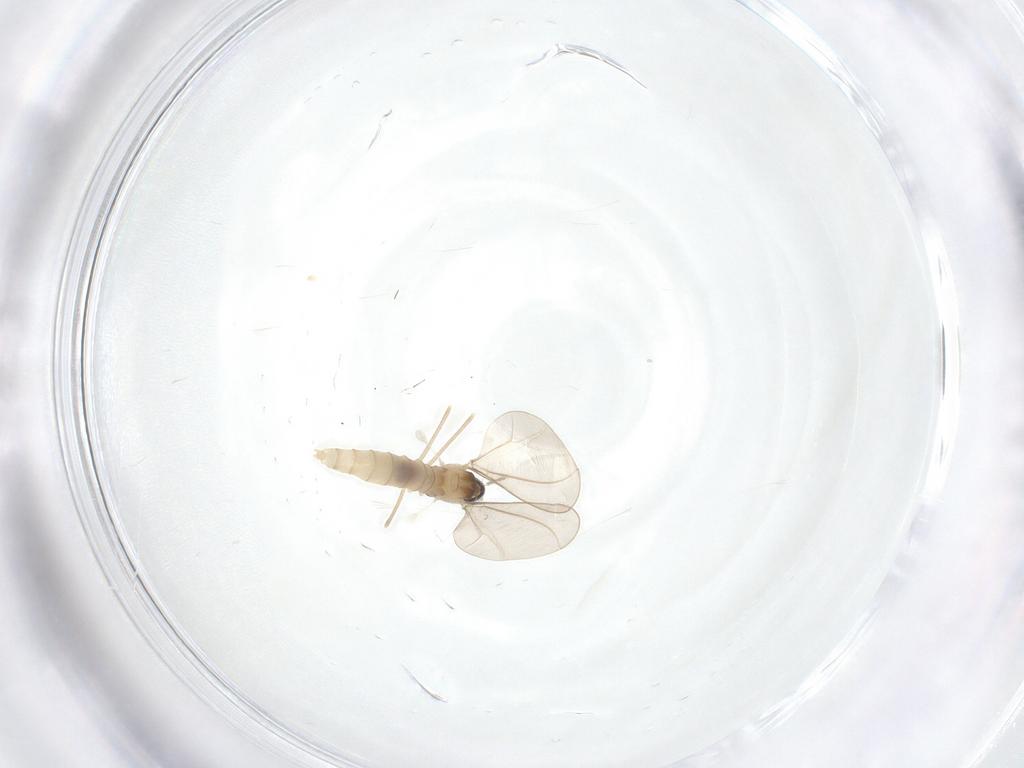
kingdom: Animalia
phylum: Arthropoda
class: Insecta
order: Diptera
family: Cecidomyiidae
